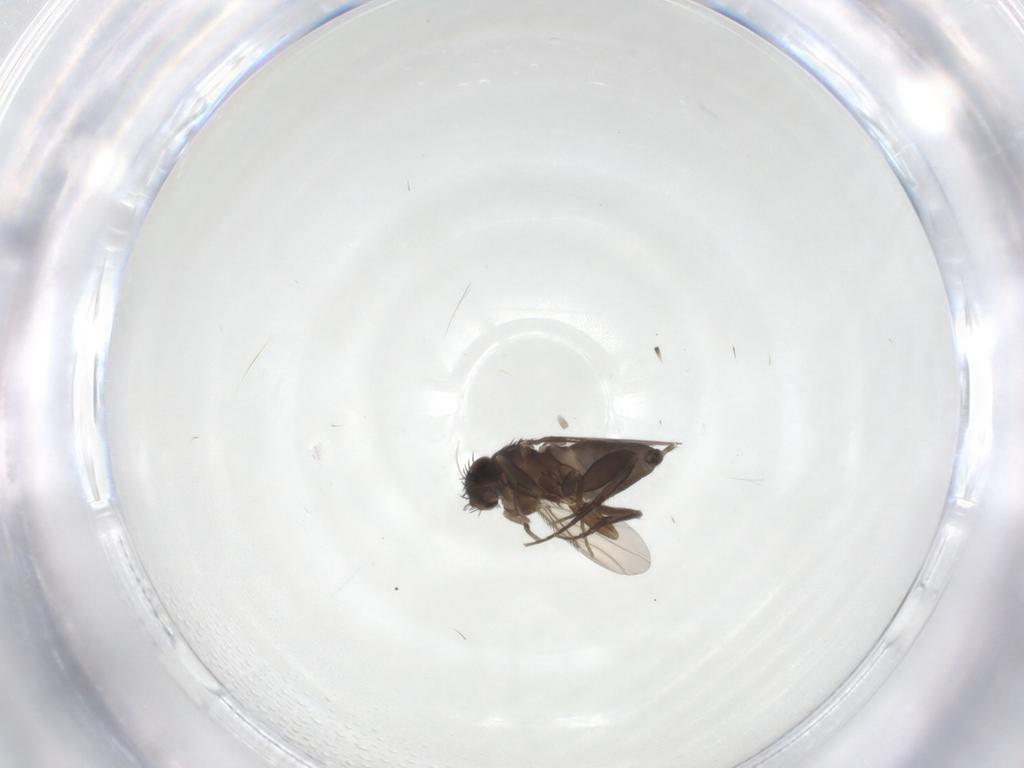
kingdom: Animalia
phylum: Arthropoda
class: Insecta
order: Diptera
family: Phoridae
